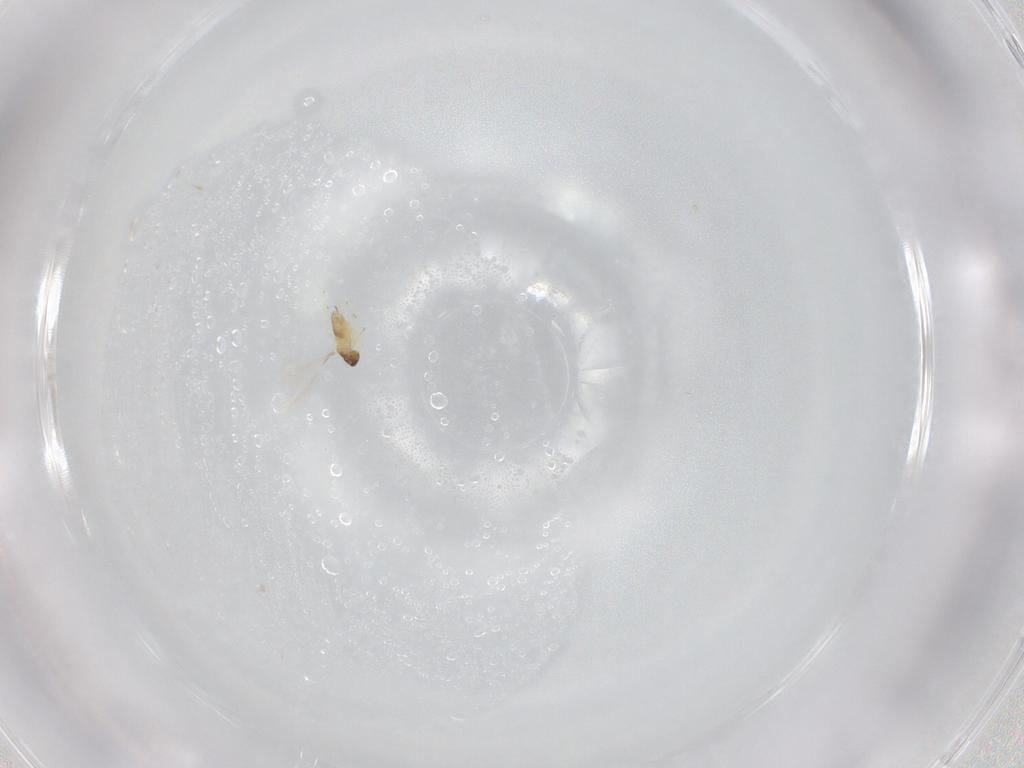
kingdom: Animalia
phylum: Arthropoda
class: Insecta
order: Hymenoptera
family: Mymaridae
